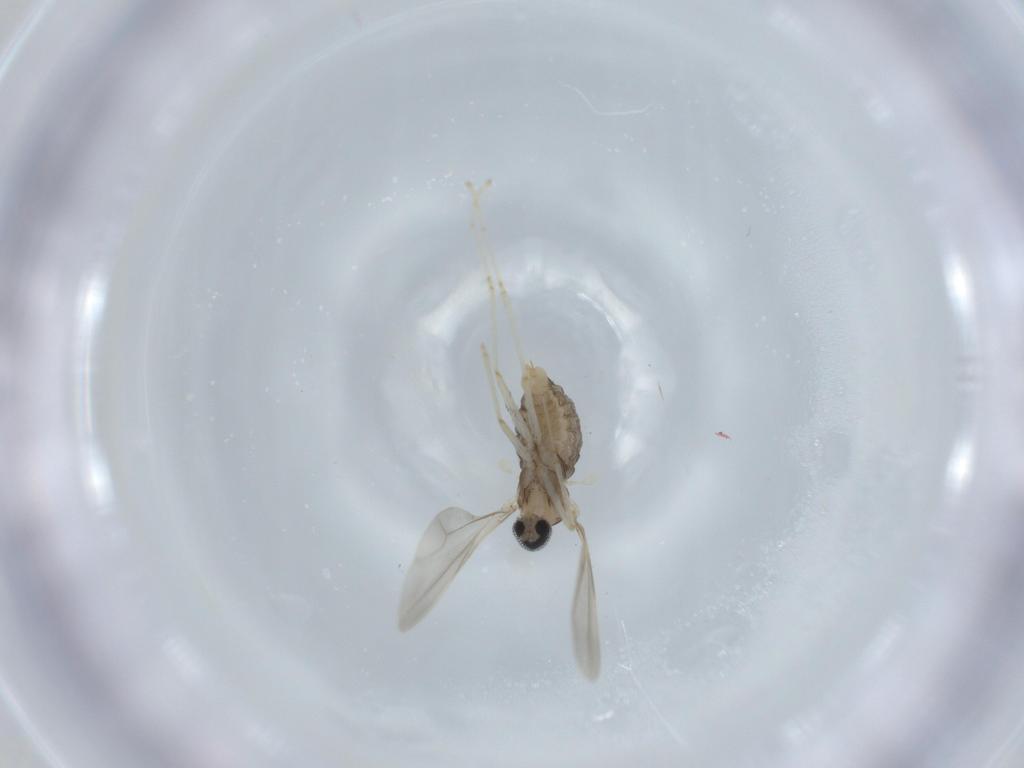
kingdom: Animalia
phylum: Arthropoda
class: Insecta
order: Diptera
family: Cecidomyiidae
